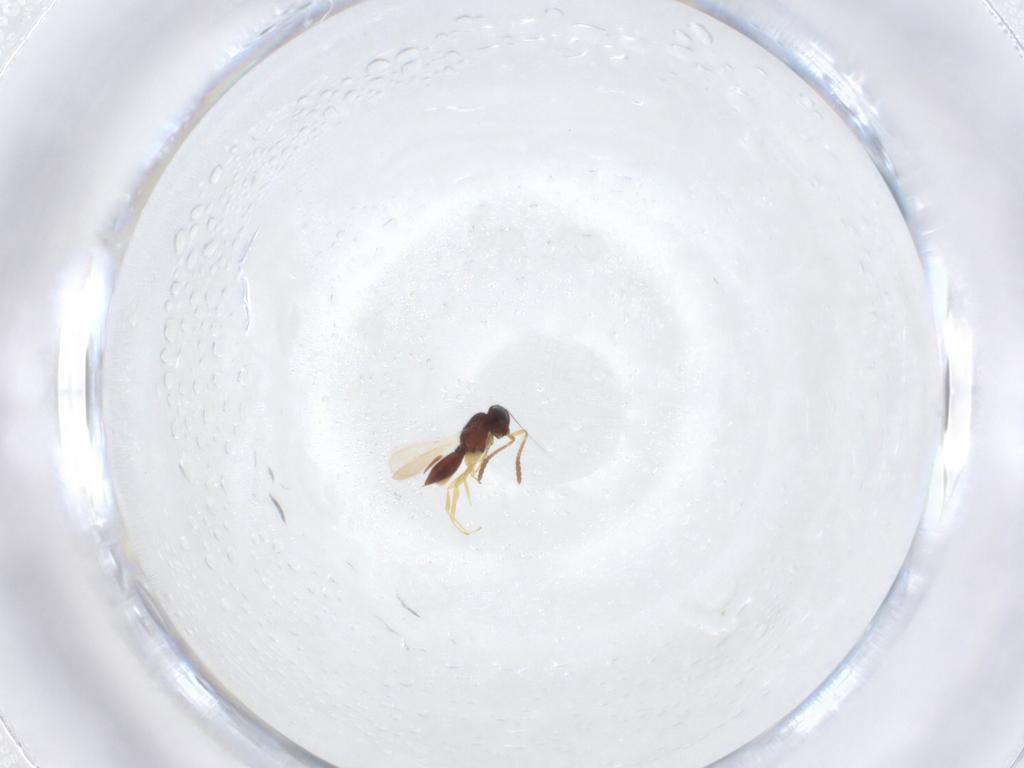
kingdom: Animalia
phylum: Arthropoda
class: Insecta
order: Hymenoptera
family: Scelionidae
